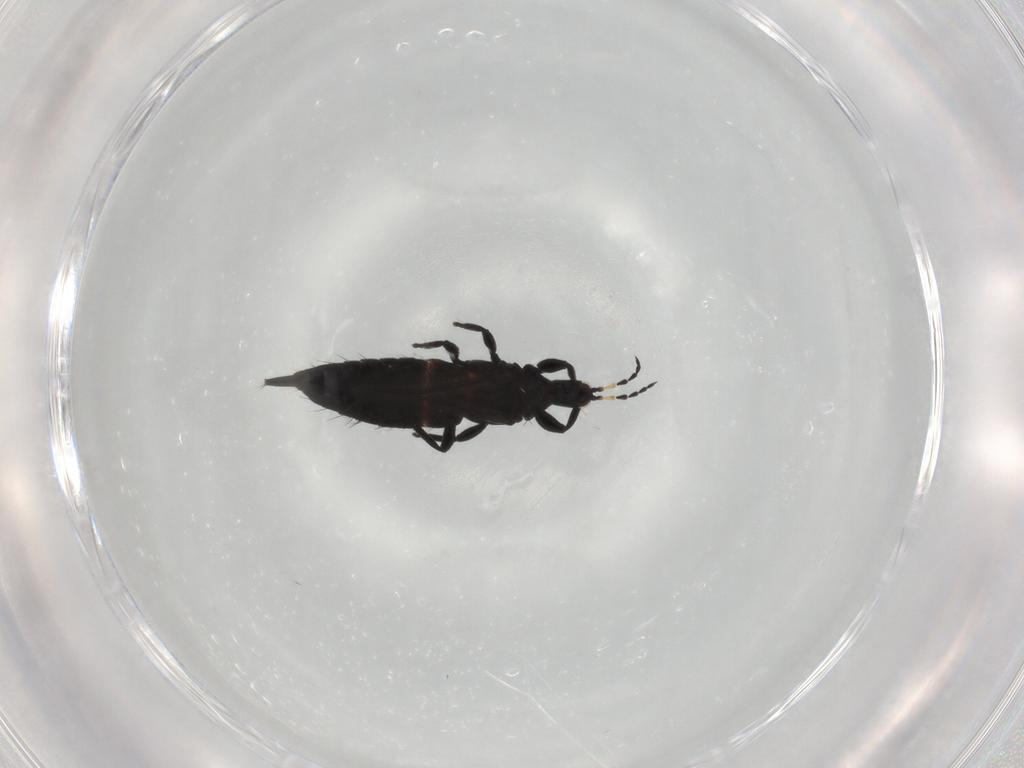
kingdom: Animalia
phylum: Arthropoda
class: Insecta
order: Thysanoptera
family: Phlaeothripidae
